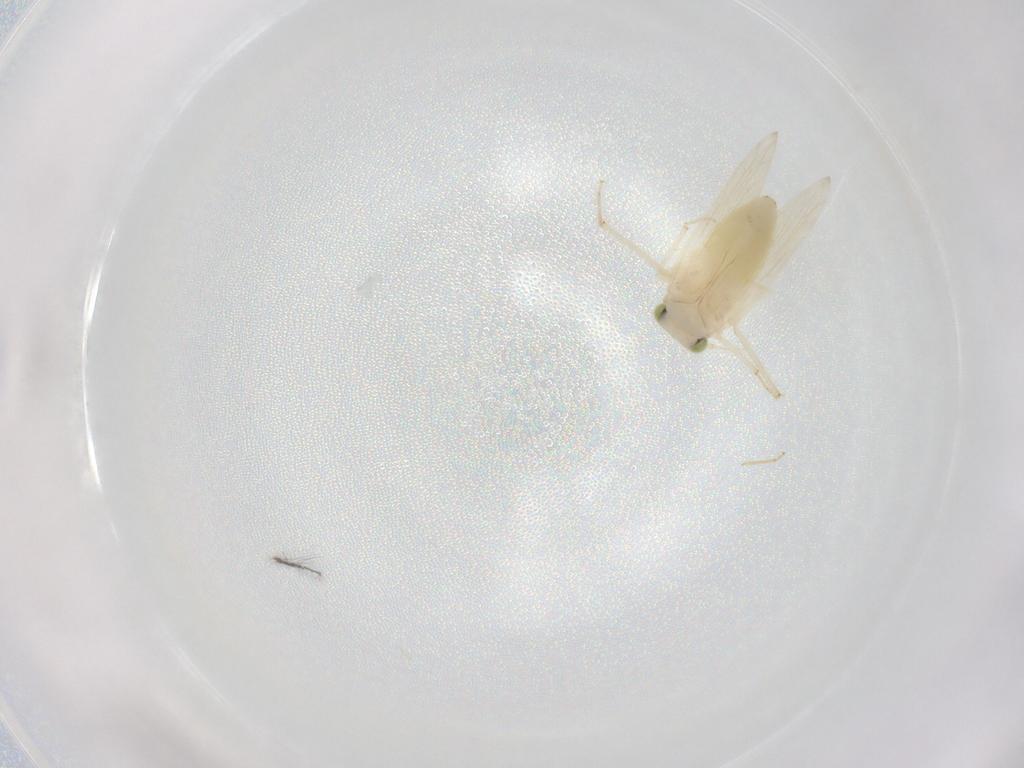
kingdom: Animalia
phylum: Arthropoda
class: Insecta
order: Psocodea
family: Lepidopsocidae
